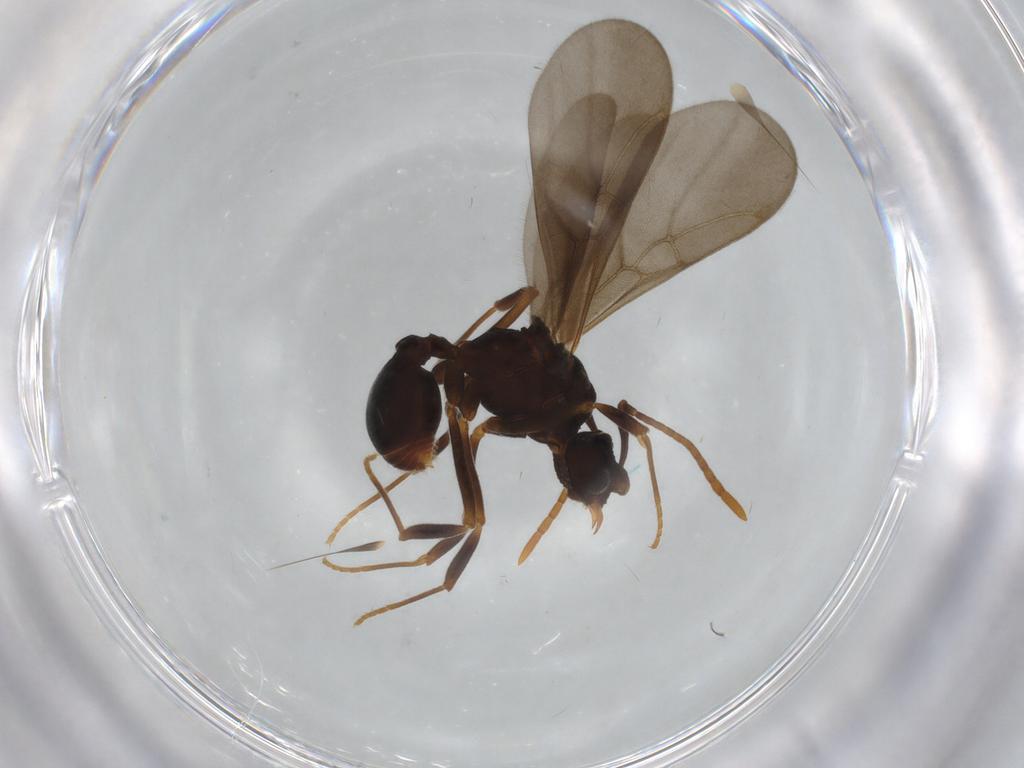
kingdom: Animalia
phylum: Arthropoda
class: Insecta
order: Hymenoptera
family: Formicidae
